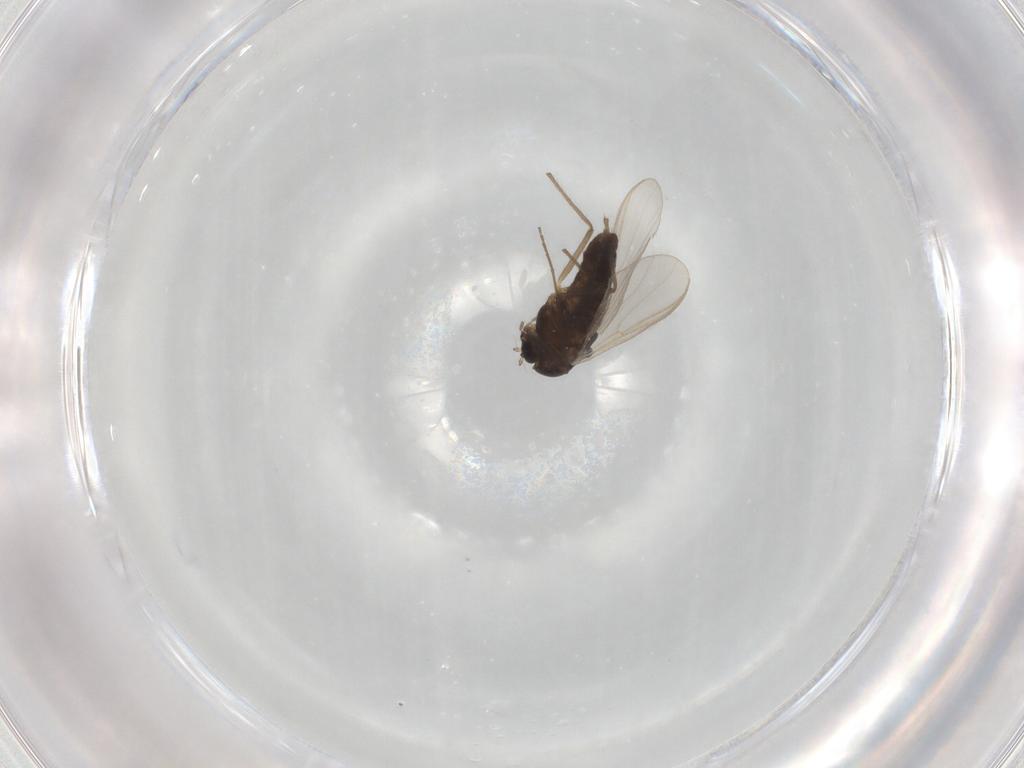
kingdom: Animalia
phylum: Arthropoda
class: Insecta
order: Diptera
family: Chironomidae
